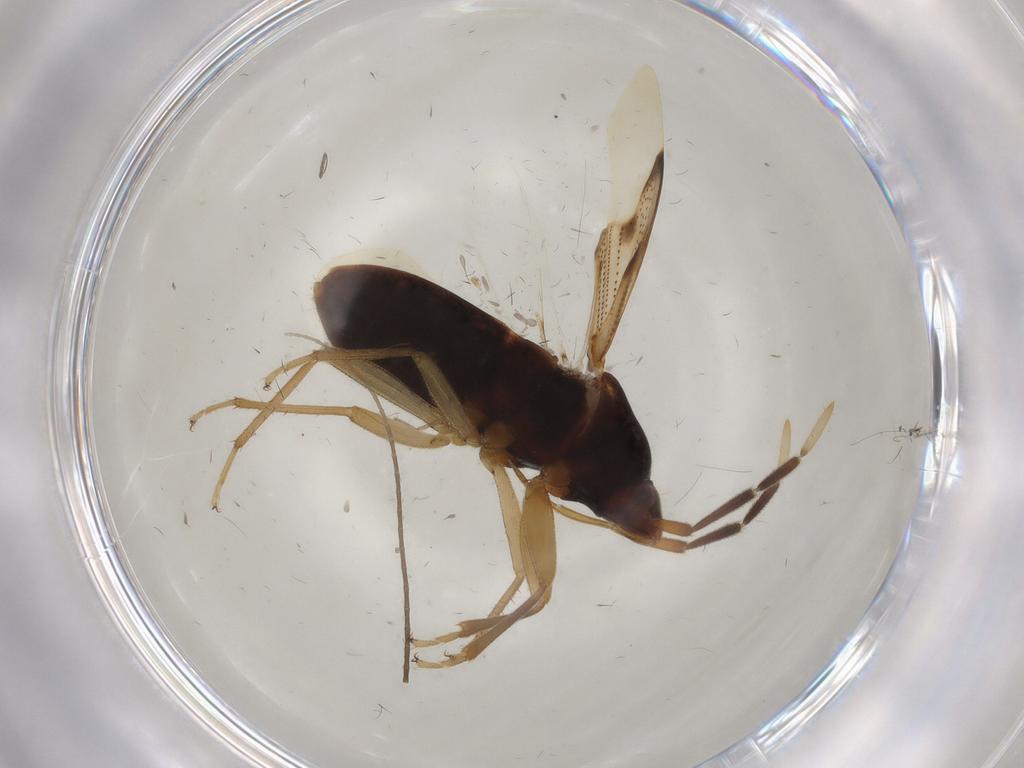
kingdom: Animalia
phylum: Arthropoda
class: Insecta
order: Hemiptera
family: Rhyparochromidae
